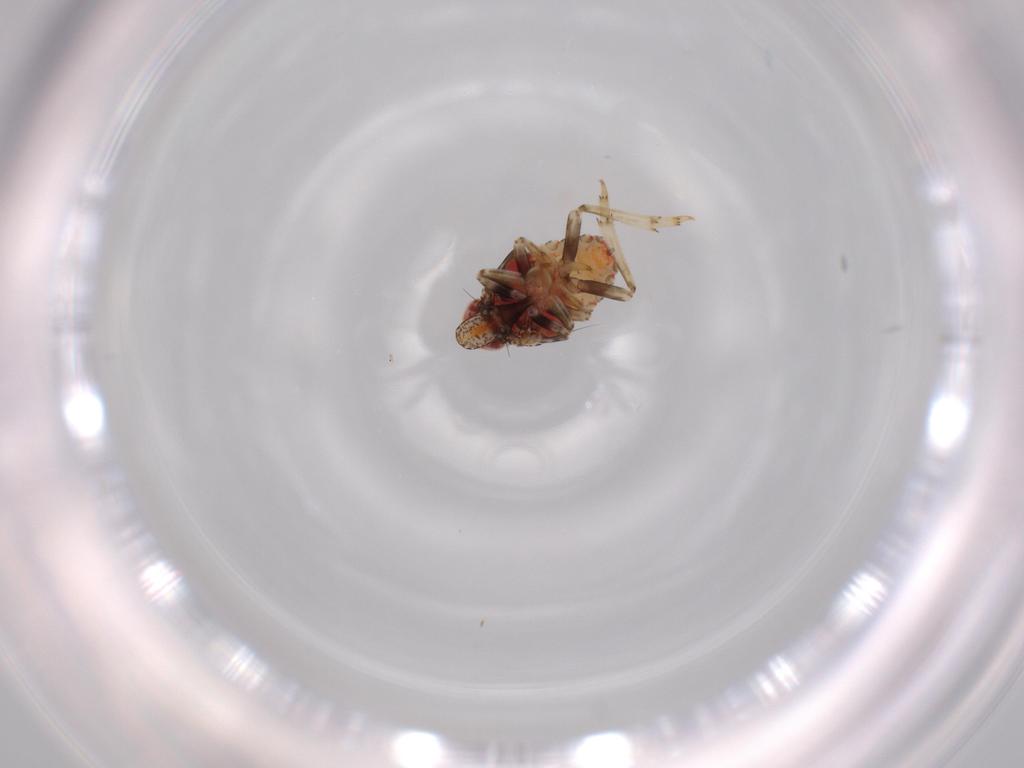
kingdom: Animalia
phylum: Arthropoda
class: Insecta
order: Hemiptera
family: Issidae
